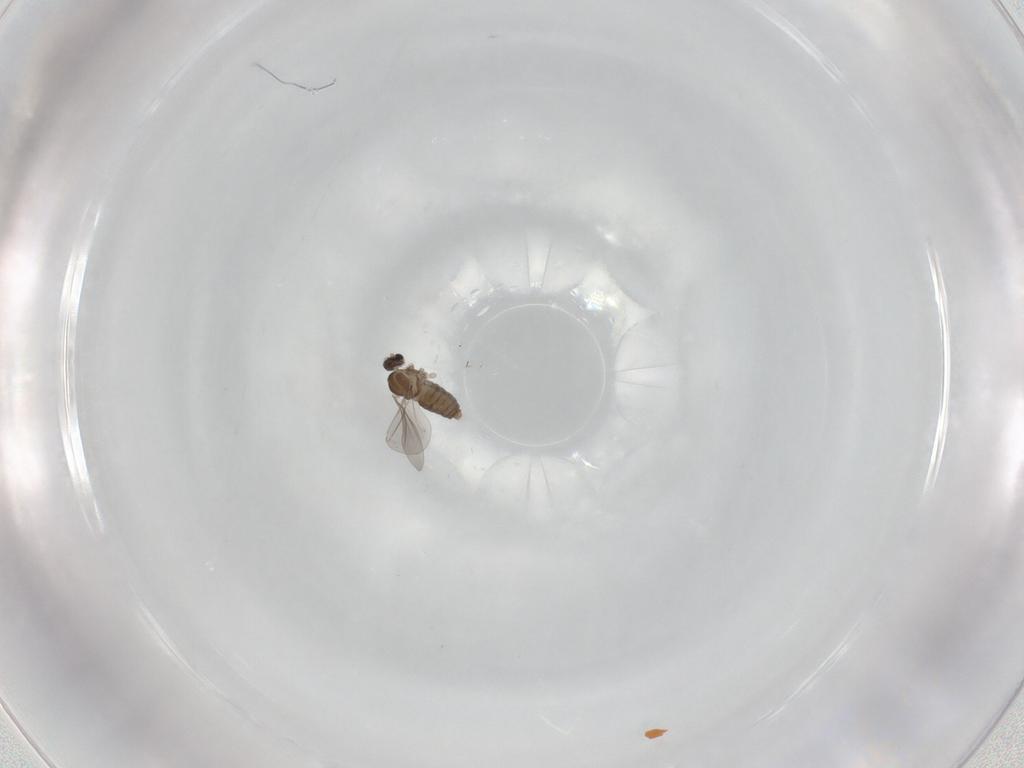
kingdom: Animalia
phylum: Arthropoda
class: Insecta
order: Diptera
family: Cecidomyiidae
